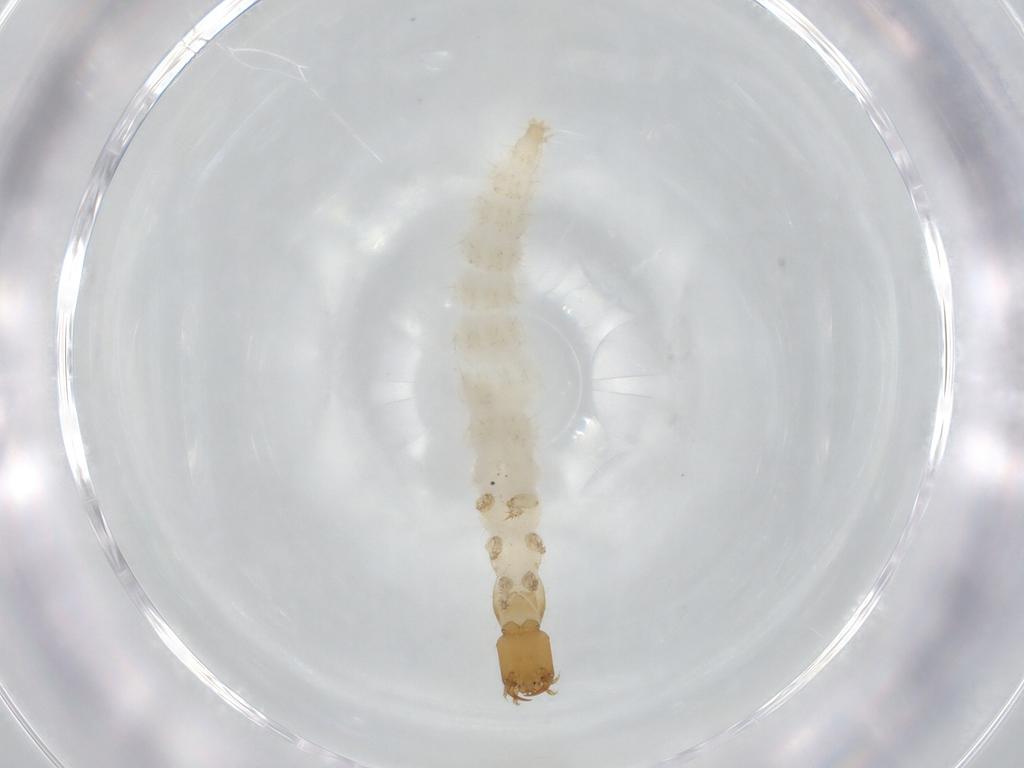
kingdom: Animalia
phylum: Arthropoda
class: Insecta
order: Coleoptera
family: Staphylinidae
